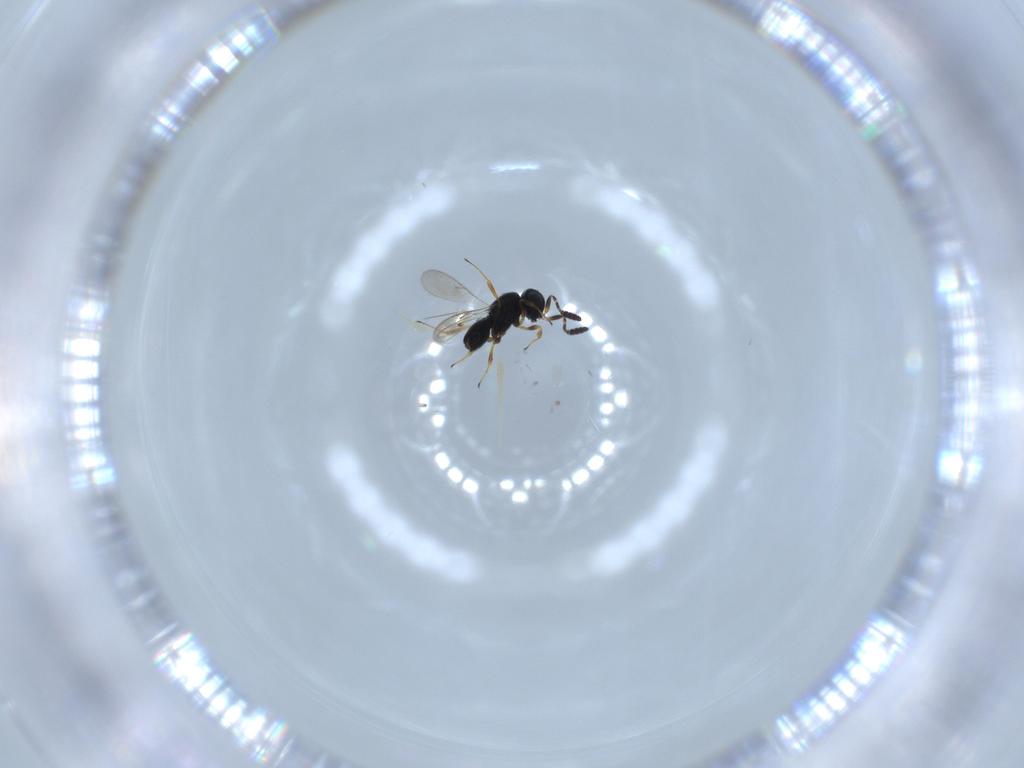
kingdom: Animalia
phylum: Arthropoda
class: Insecta
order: Hymenoptera
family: Scelionidae
